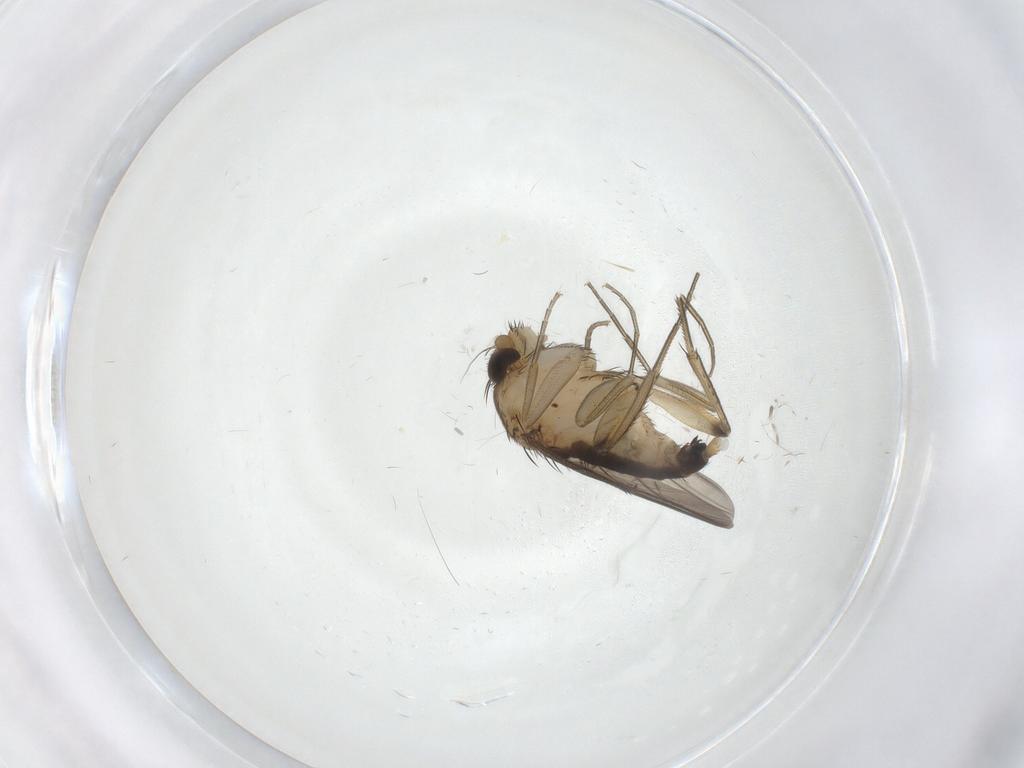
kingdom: Animalia
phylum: Arthropoda
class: Insecta
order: Diptera
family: Phoridae
